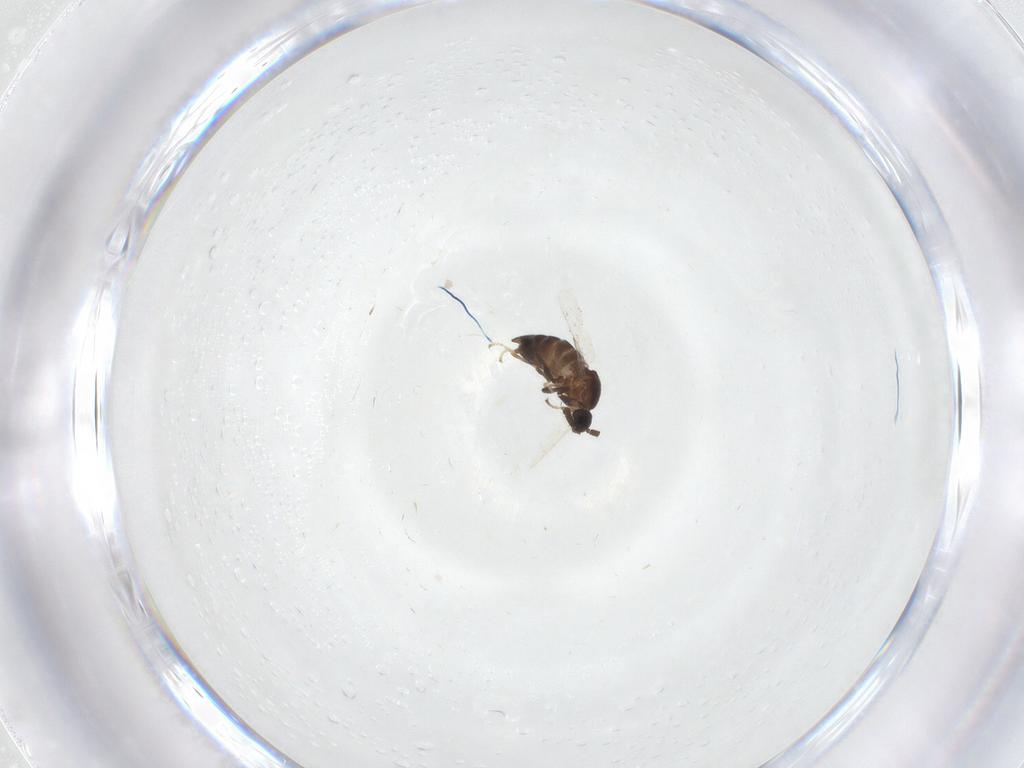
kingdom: Animalia
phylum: Arthropoda
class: Insecta
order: Diptera
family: Scatopsidae
